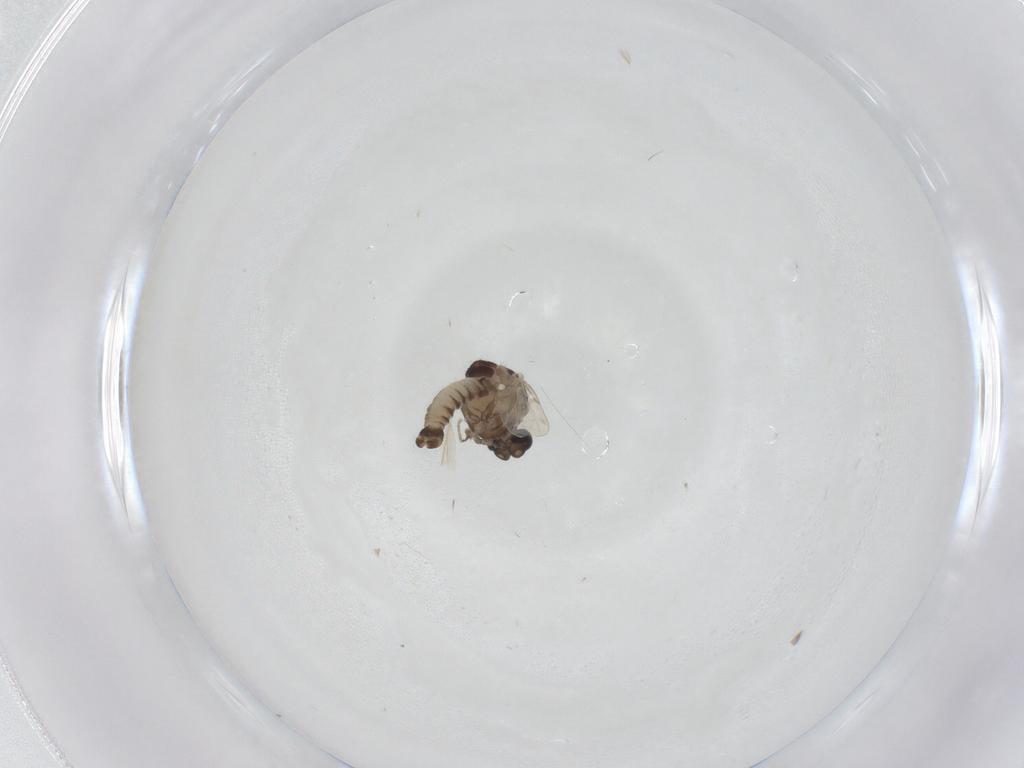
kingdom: Animalia
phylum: Arthropoda
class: Insecta
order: Diptera
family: Ceratopogonidae
